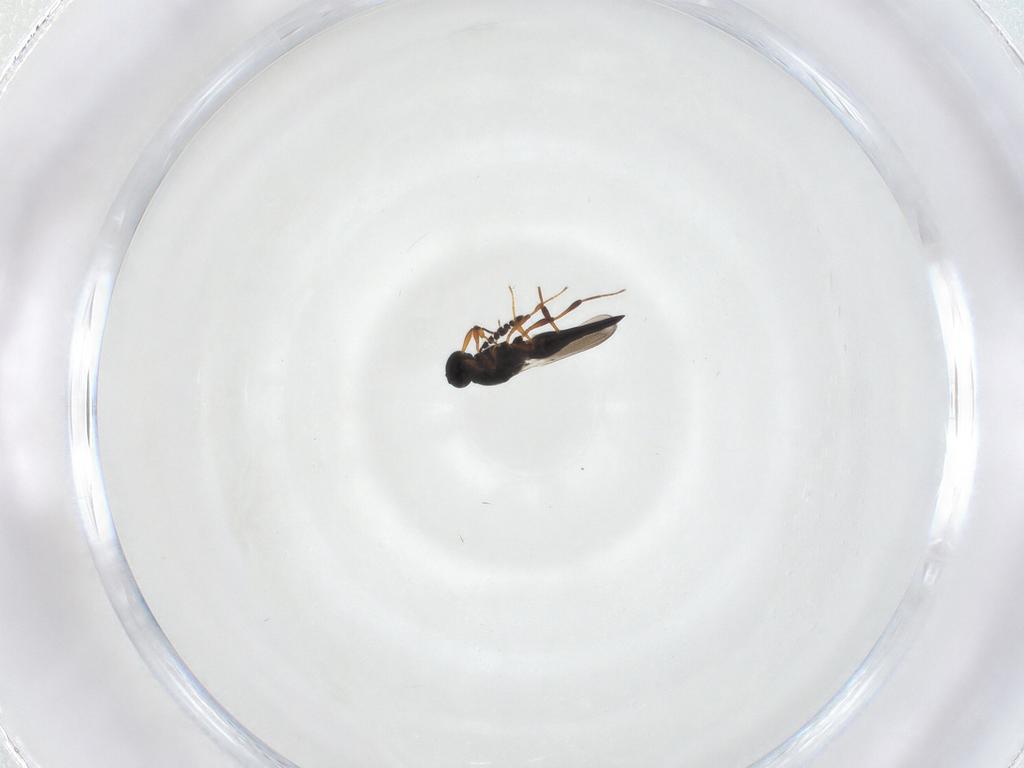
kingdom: Animalia
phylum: Arthropoda
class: Insecta
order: Hymenoptera
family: Platygastridae
